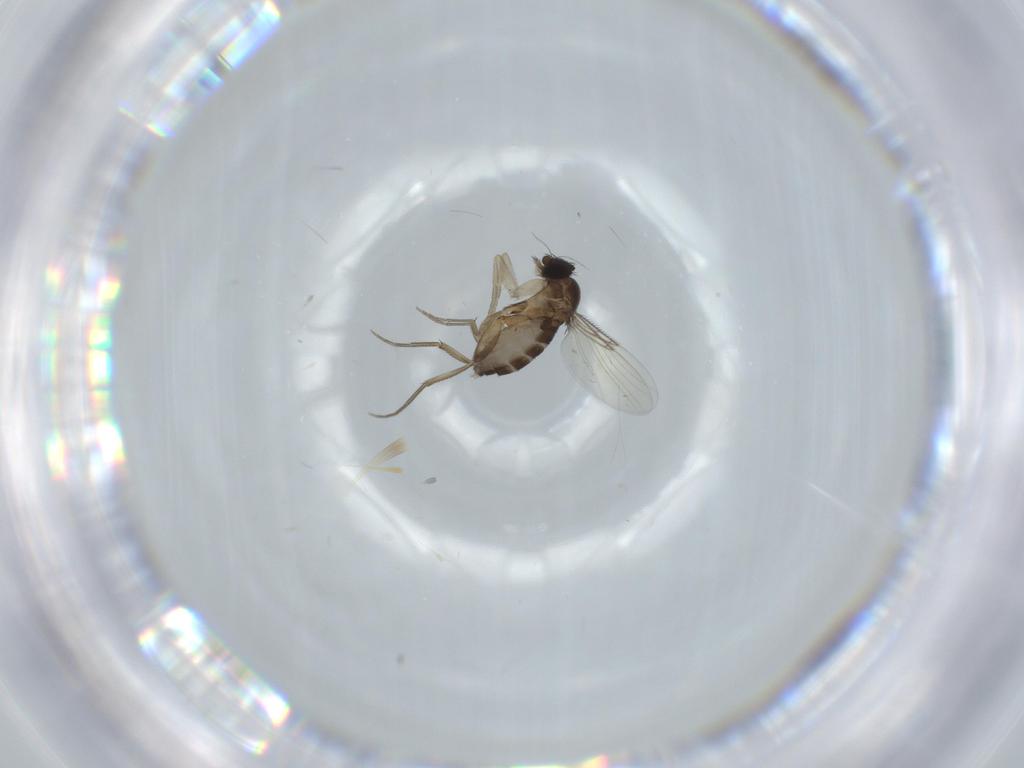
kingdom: Animalia
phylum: Arthropoda
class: Insecta
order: Diptera
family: Phoridae
